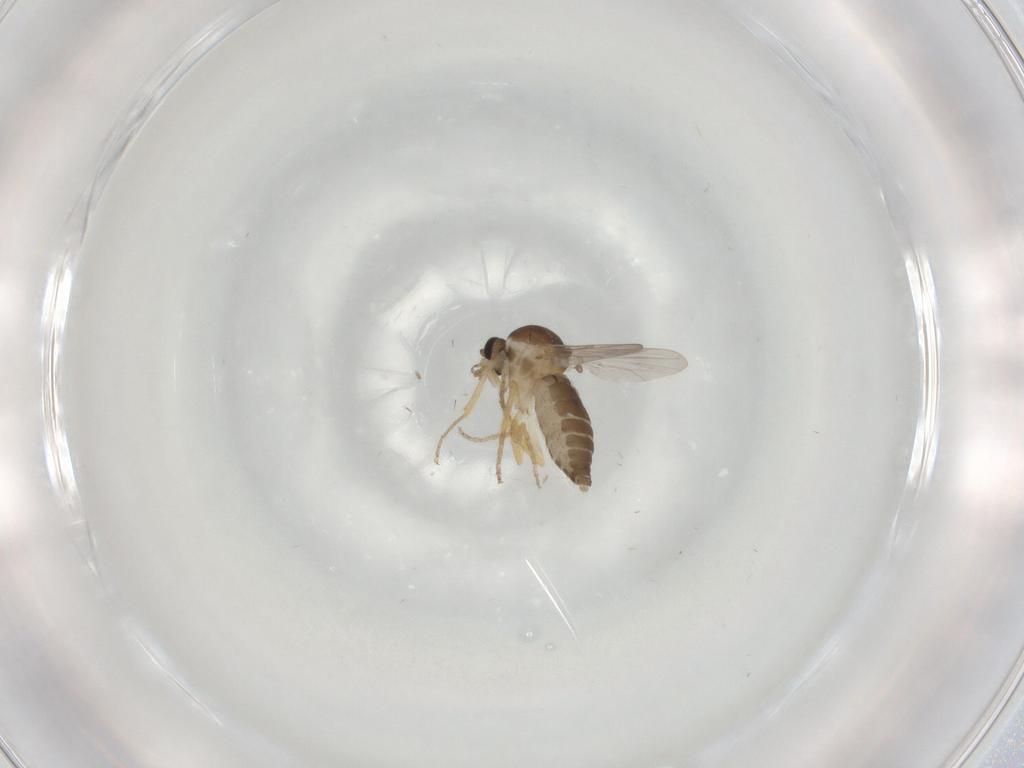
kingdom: Animalia
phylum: Arthropoda
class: Insecta
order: Diptera
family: Ceratopogonidae
